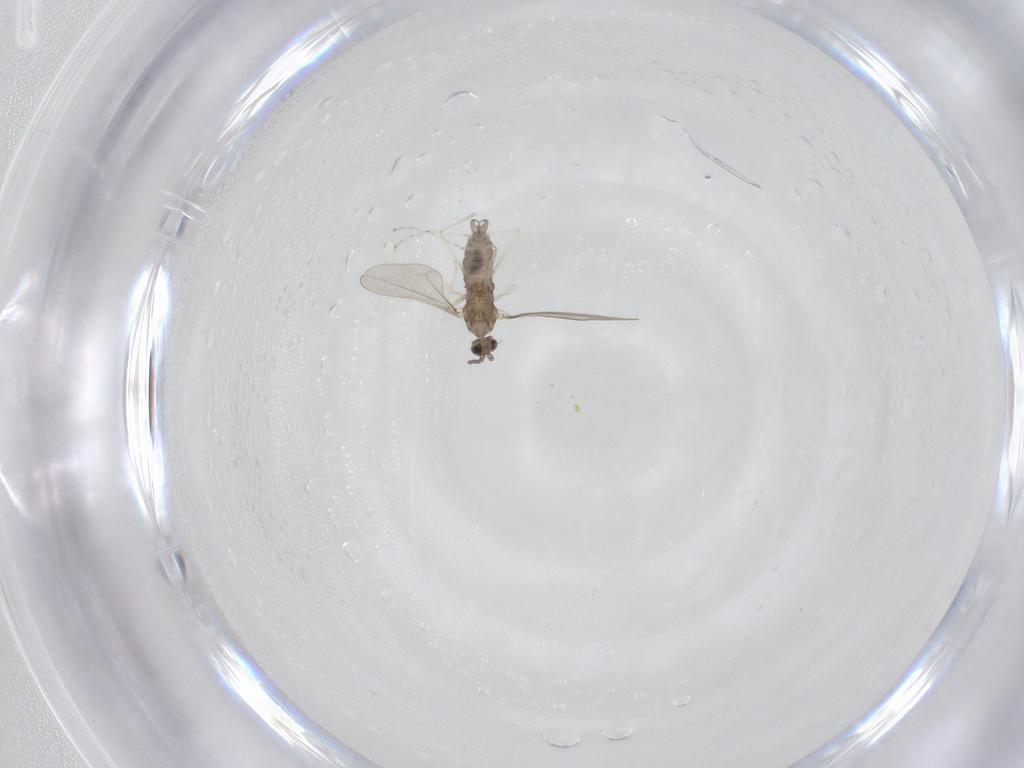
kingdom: Animalia
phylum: Arthropoda
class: Insecta
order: Diptera
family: Cecidomyiidae
